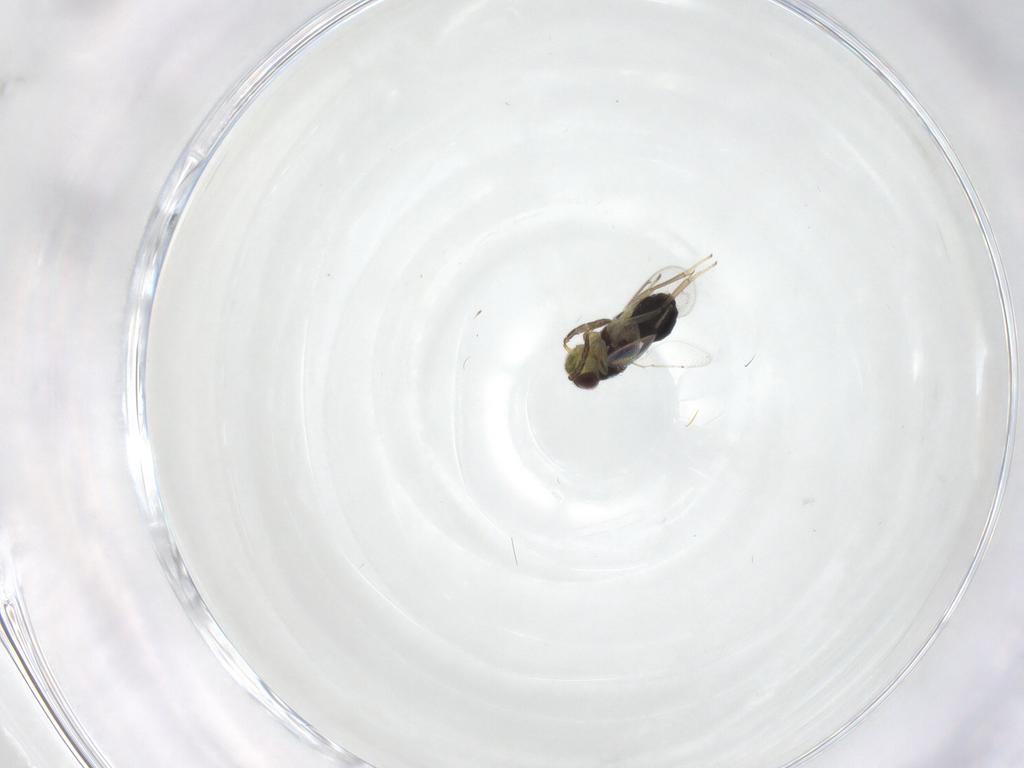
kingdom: Animalia
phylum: Arthropoda
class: Insecta
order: Hymenoptera
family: Aphelinidae
